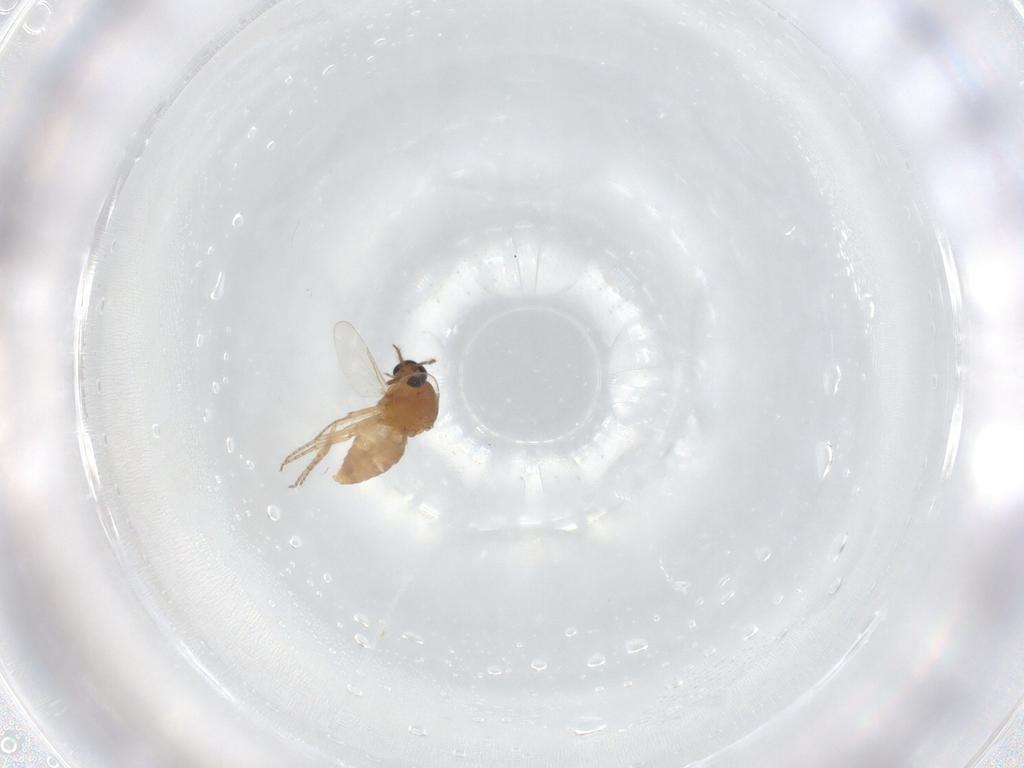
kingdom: Animalia
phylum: Arthropoda
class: Insecta
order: Diptera
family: Ceratopogonidae
